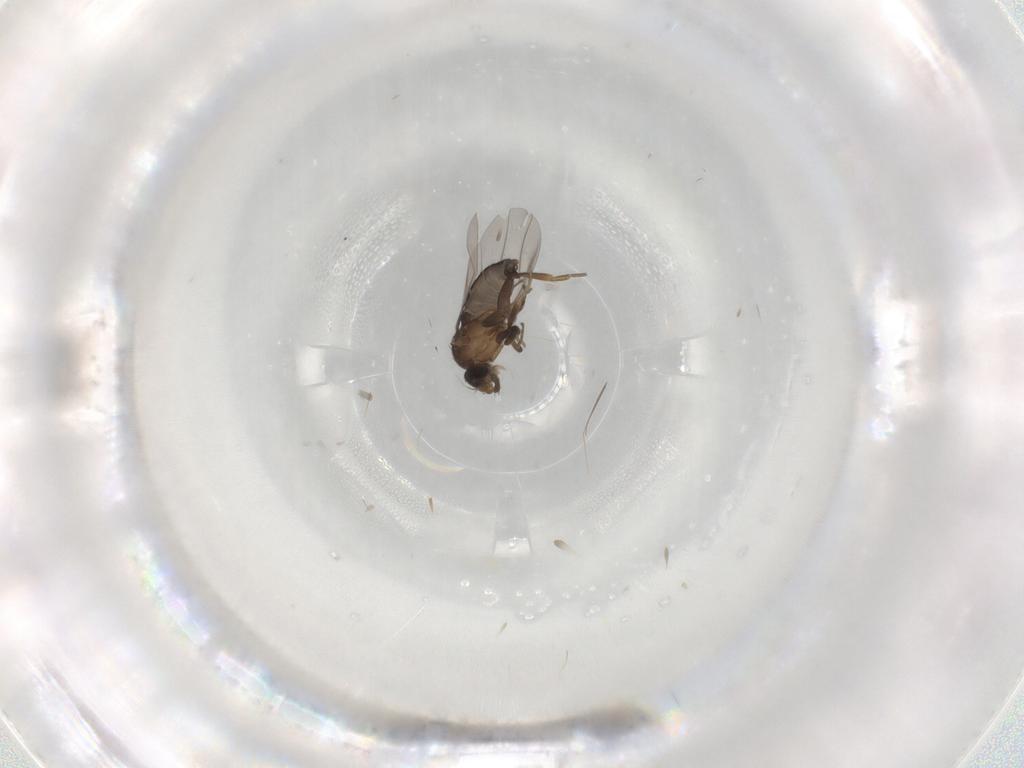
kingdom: Animalia
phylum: Arthropoda
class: Insecta
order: Diptera
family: Phoridae
